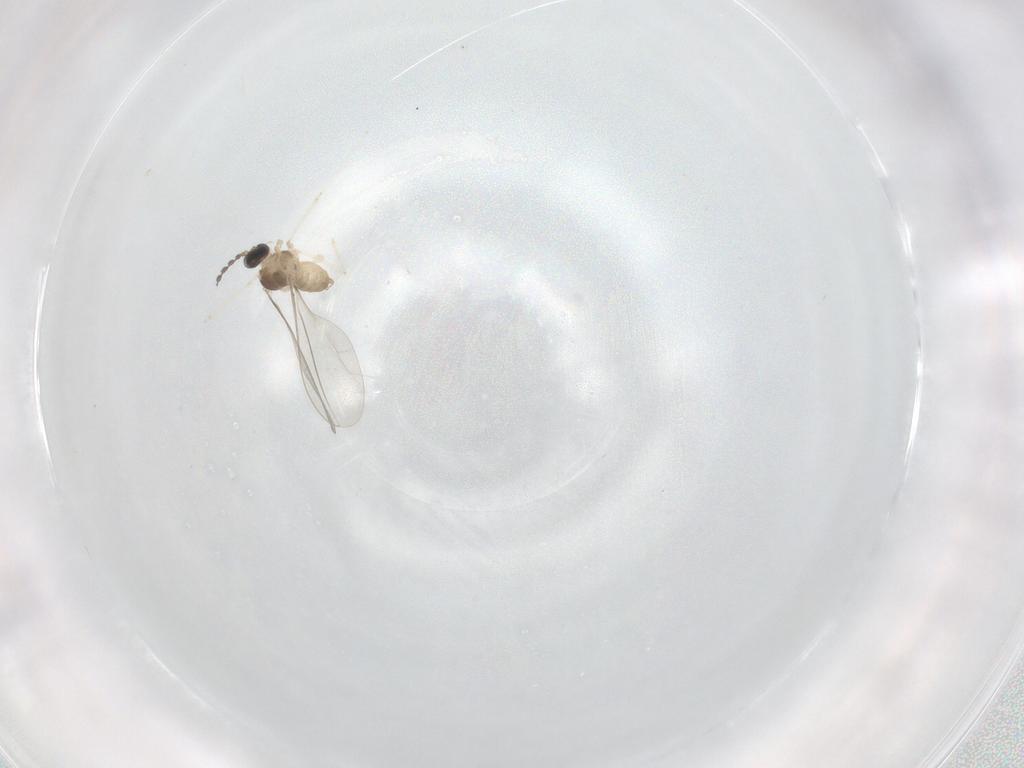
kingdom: Animalia
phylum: Arthropoda
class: Insecta
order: Diptera
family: Cecidomyiidae
